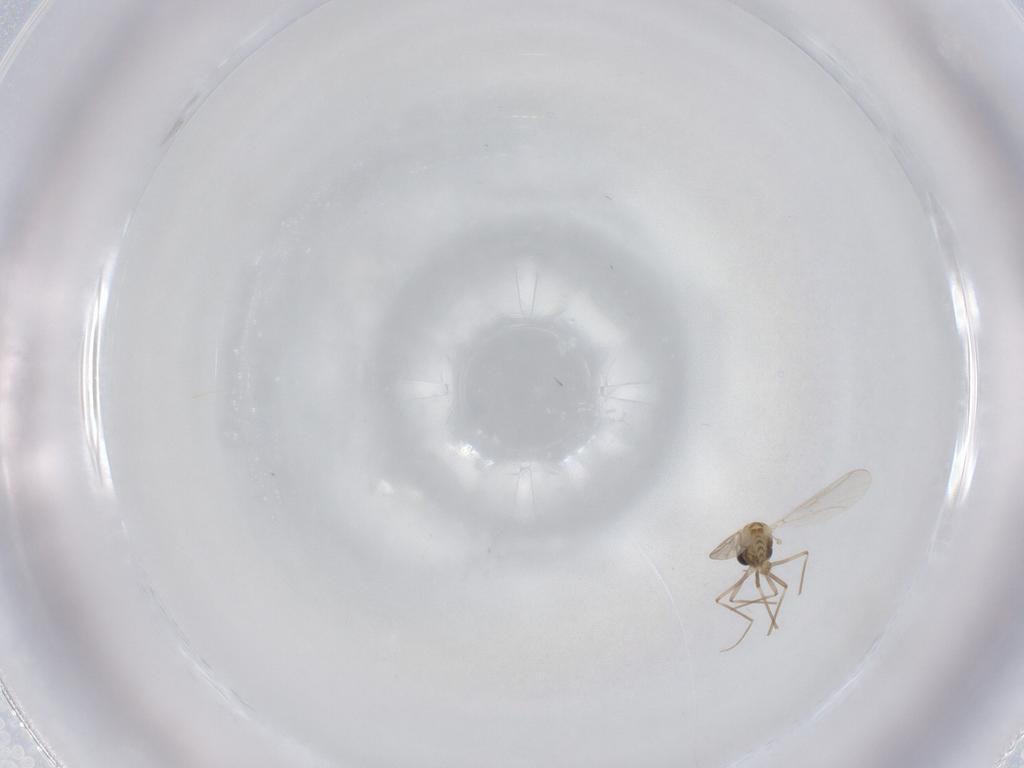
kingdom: Animalia
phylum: Arthropoda
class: Insecta
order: Diptera
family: Chironomidae
